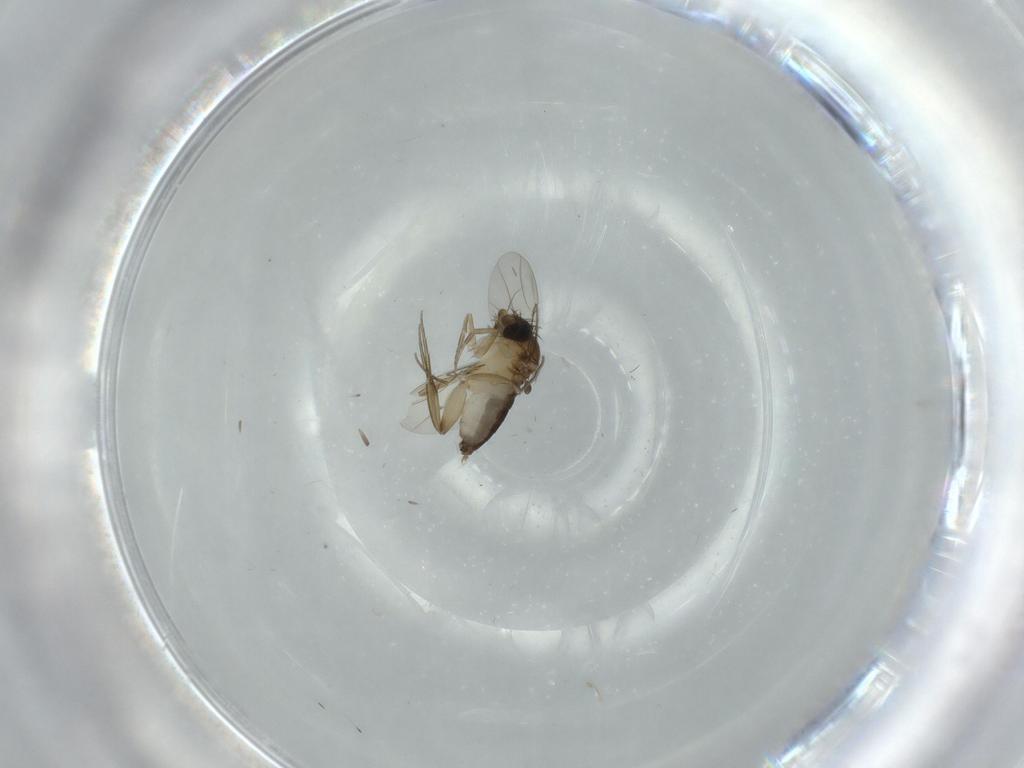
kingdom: Animalia
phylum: Arthropoda
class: Insecta
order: Diptera
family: Phoridae
